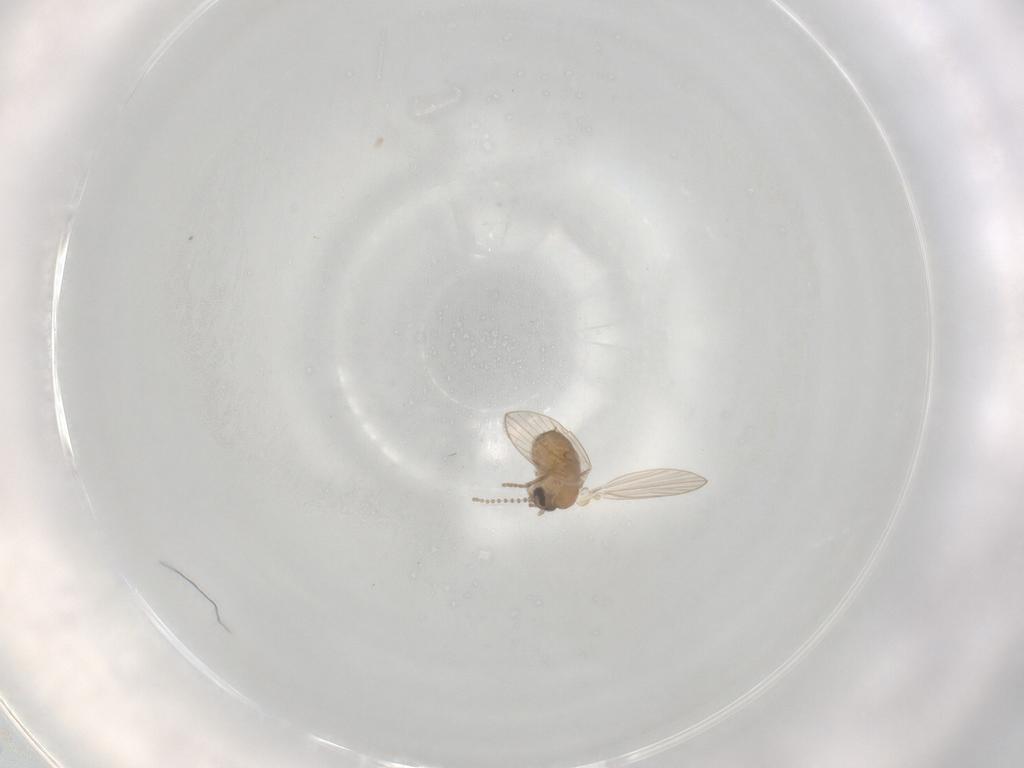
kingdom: Animalia
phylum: Arthropoda
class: Insecta
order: Diptera
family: Psychodidae
